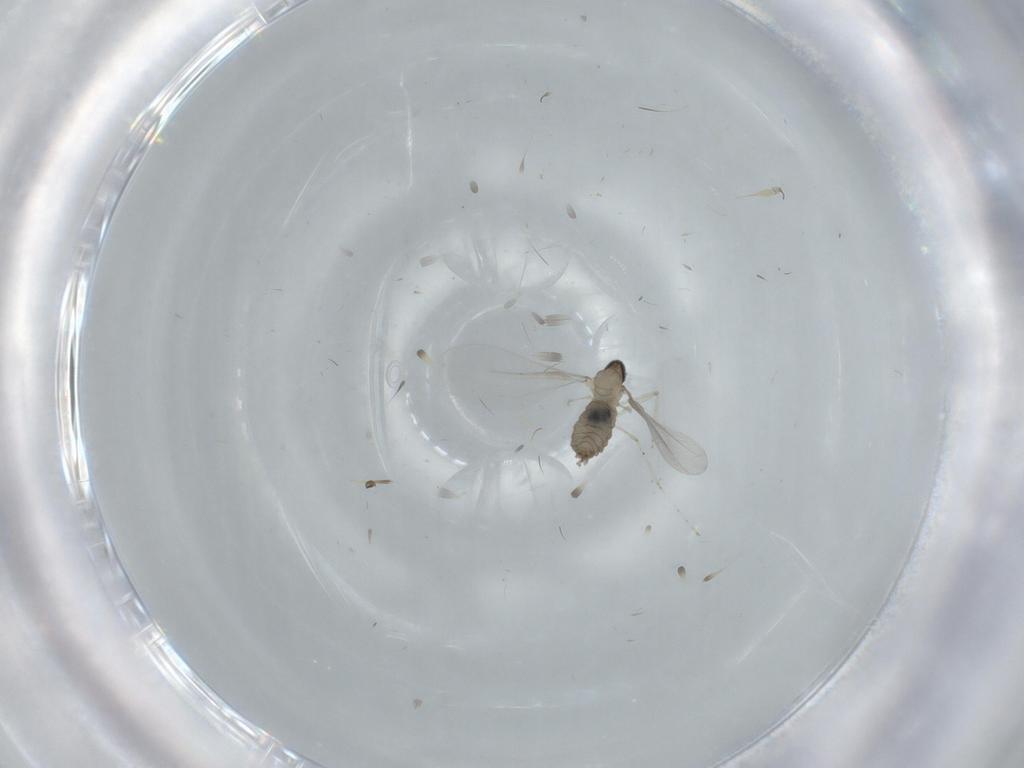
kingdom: Animalia
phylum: Arthropoda
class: Insecta
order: Diptera
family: Cecidomyiidae
